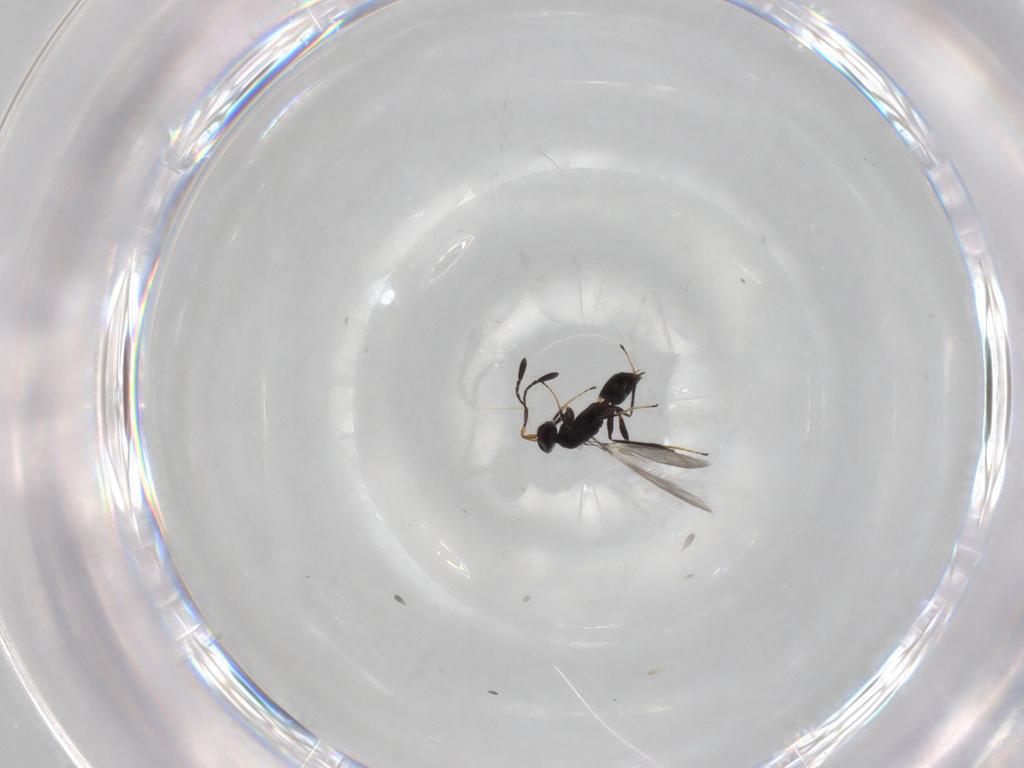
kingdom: Animalia
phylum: Arthropoda
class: Insecta
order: Hymenoptera
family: Mymaridae
